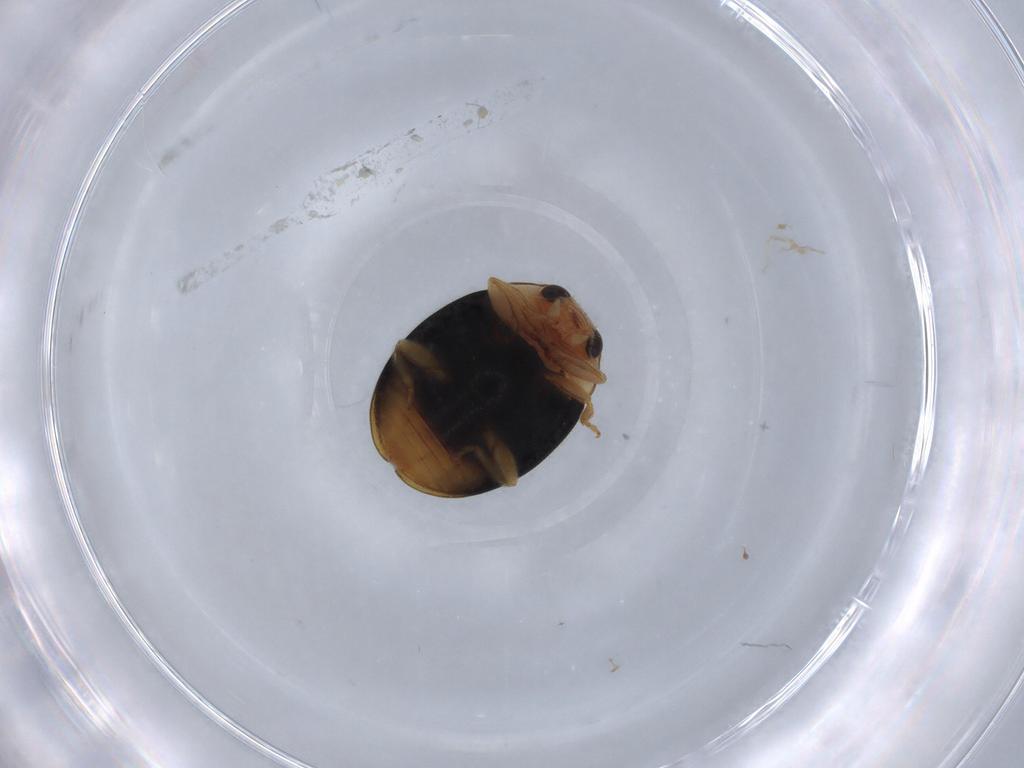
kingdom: Animalia
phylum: Arthropoda
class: Insecta
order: Coleoptera
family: Coccinellidae
